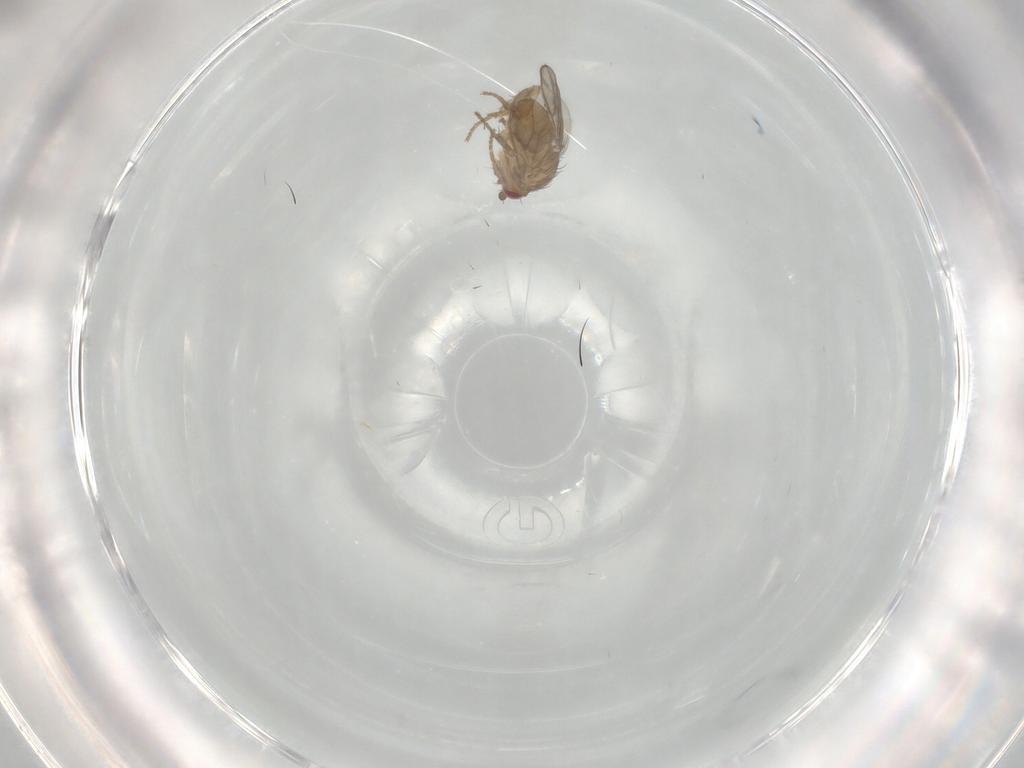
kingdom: Animalia
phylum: Arthropoda
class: Insecta
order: Diptera
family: Sphaeroceridae
